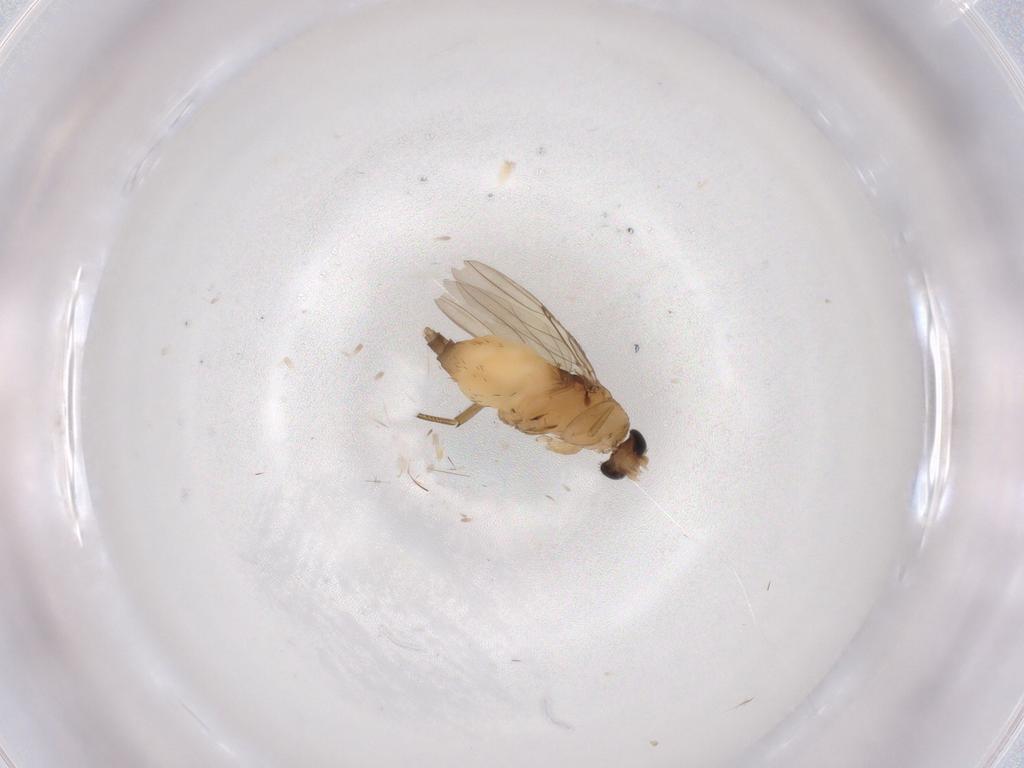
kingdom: Animalia
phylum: Arthropoda
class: Insecta
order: Diptera
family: Phoridae
